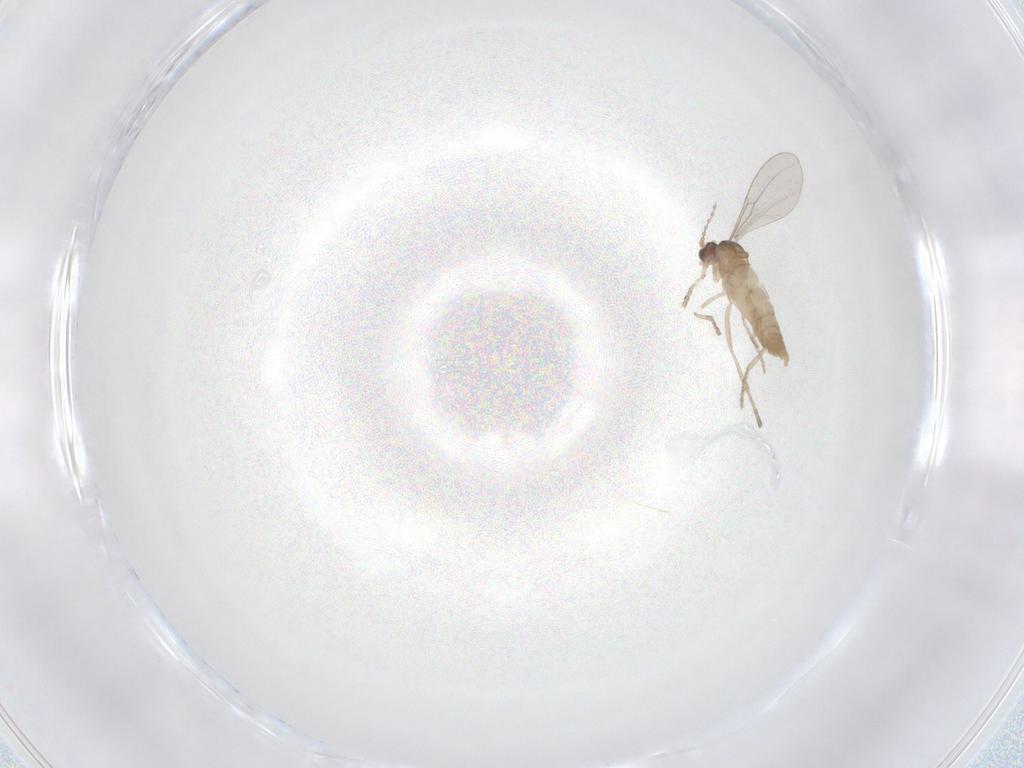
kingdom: Animalia
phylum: Arthropoda
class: Insecta
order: Diptera
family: Cecidomyiidae
